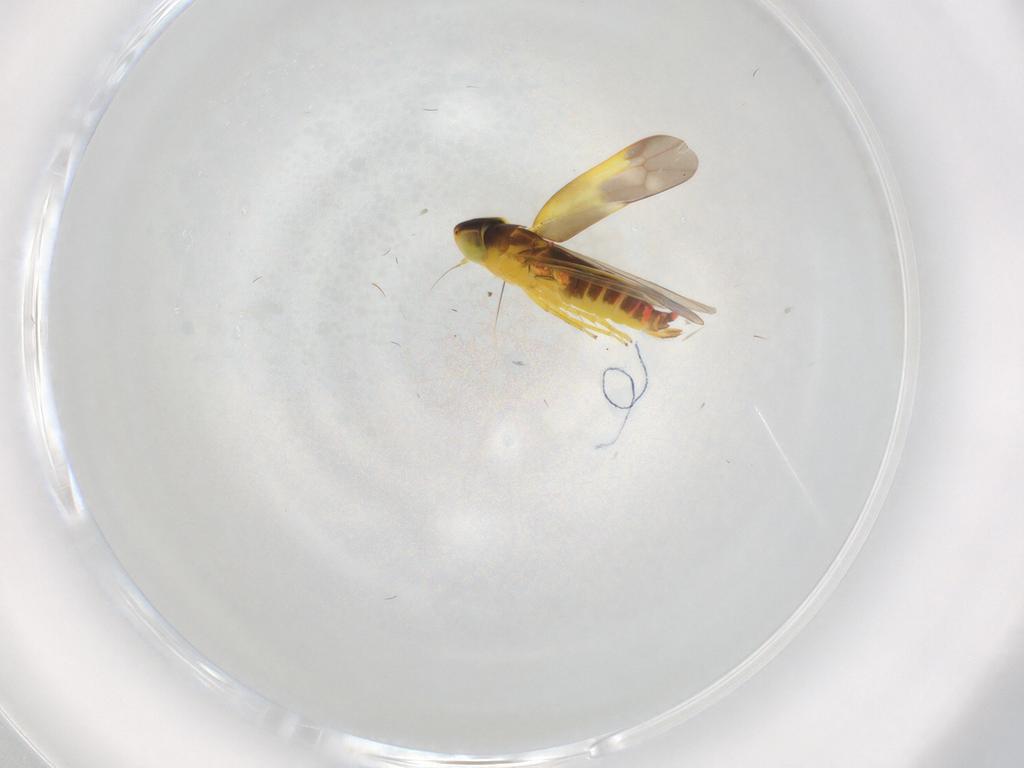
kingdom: Animalia
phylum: Arthropoda
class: Insecta
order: Hemiptera
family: Cicadellidae
